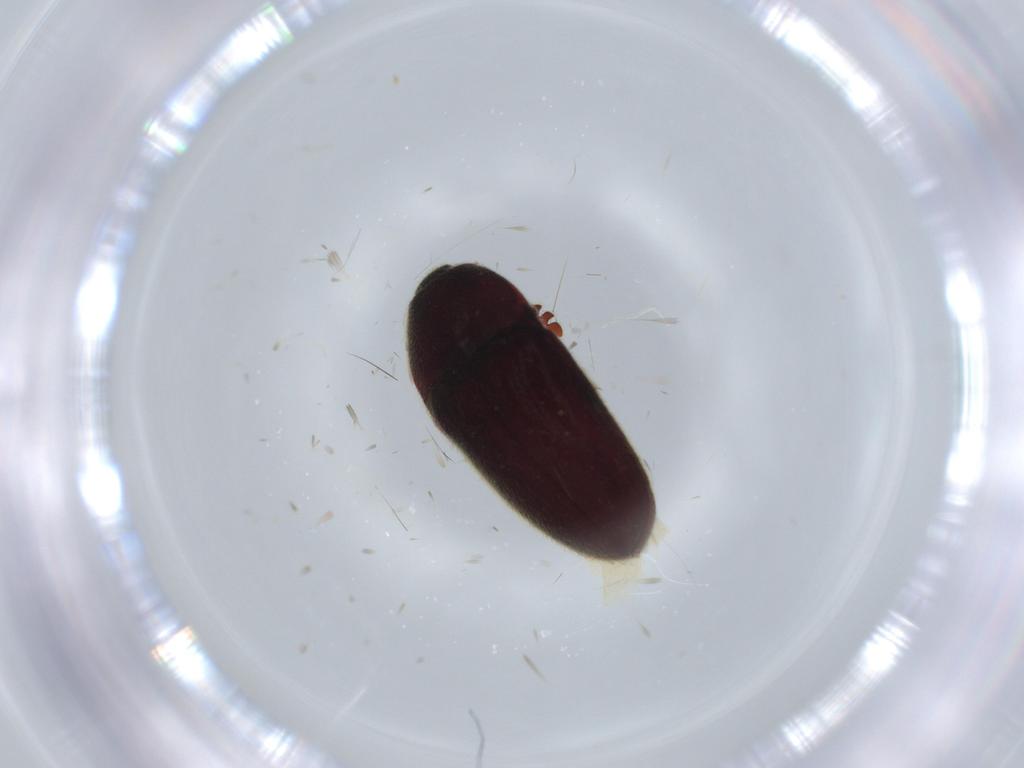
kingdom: Animalia
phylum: Arthropoda
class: Insecta
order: Coleoptera
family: Throscidae
